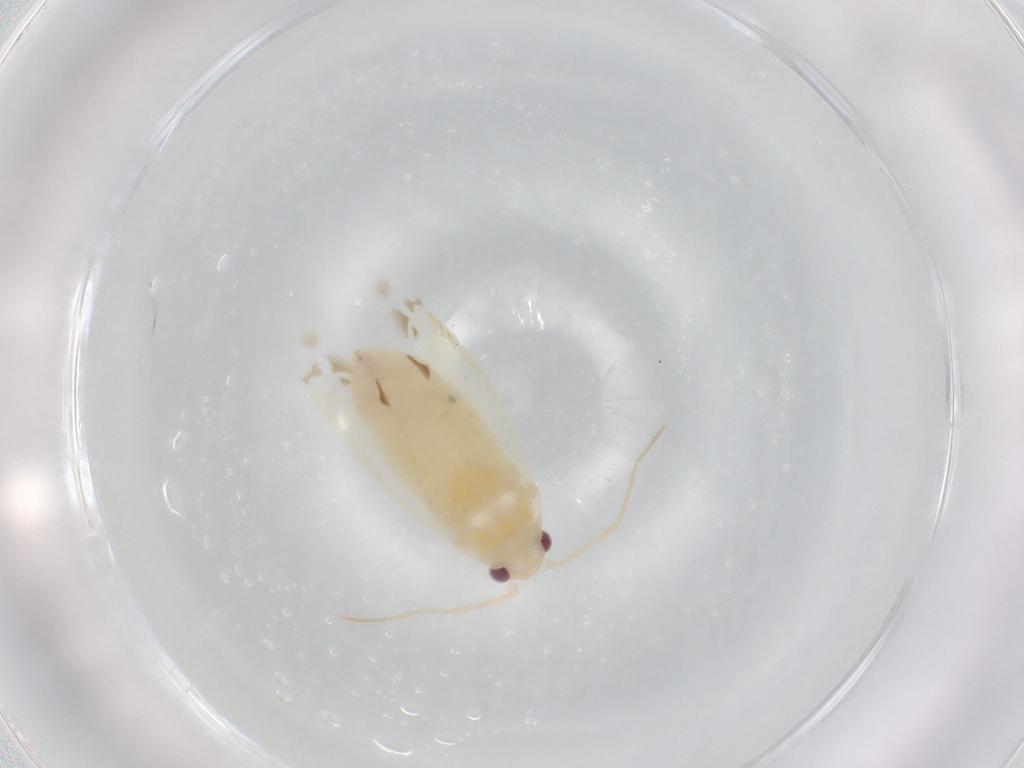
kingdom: Animalia
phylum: Arthropoda
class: Insecta
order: Hemiptera
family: Miridae
